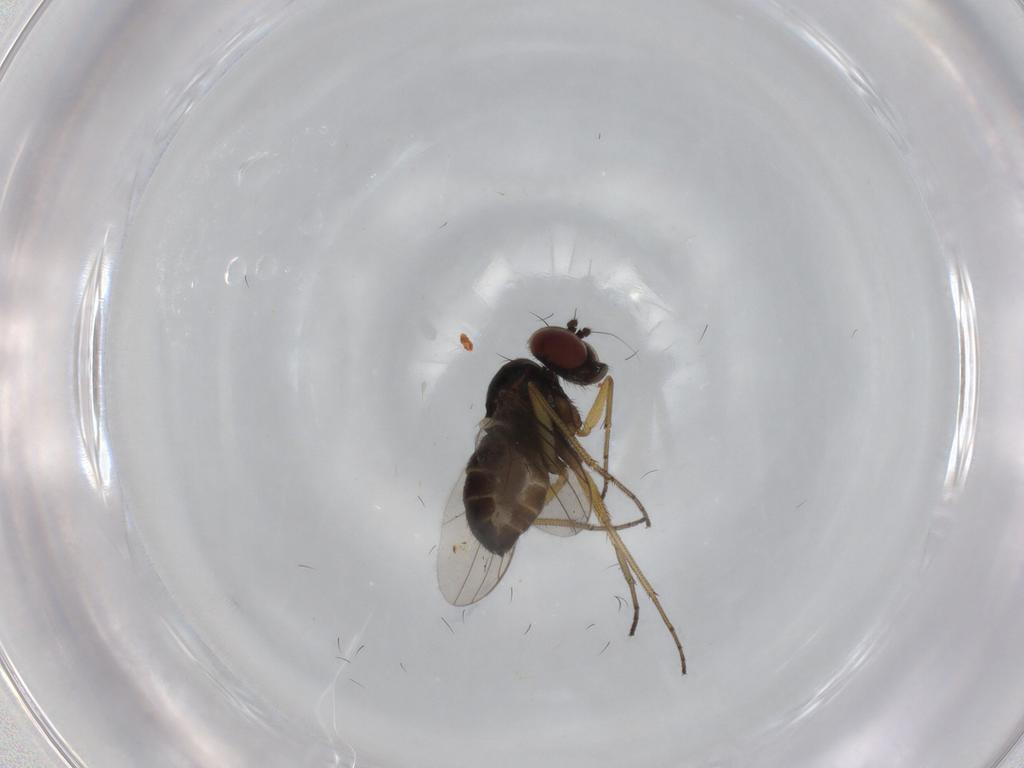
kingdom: Animalia
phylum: Arthropoda
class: Insecta
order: Diptera
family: Dolichopodidae
